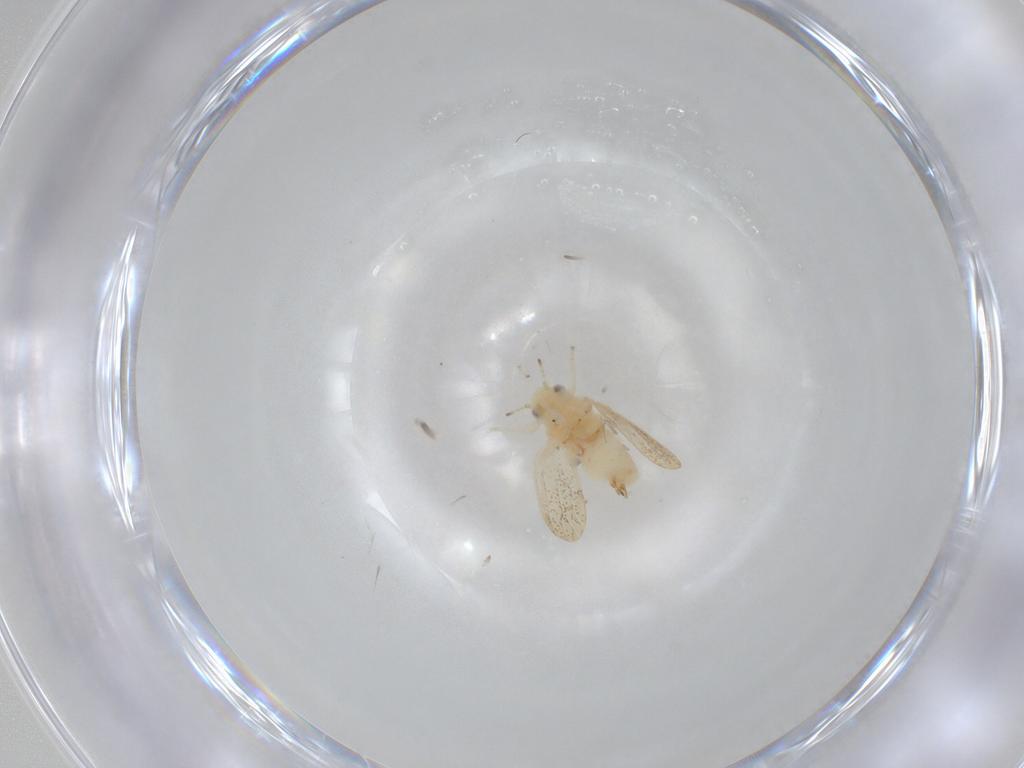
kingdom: Animalia
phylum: Arthropoda
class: Insecta
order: Hemiptera
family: Psylloidea_incertae_sedis
